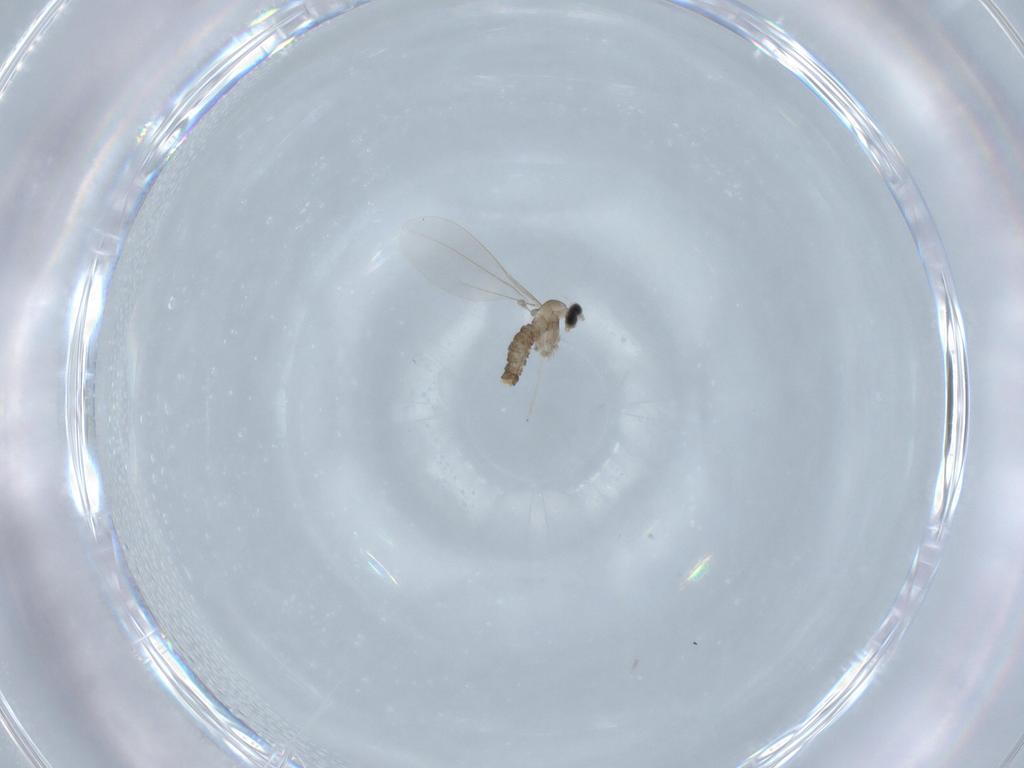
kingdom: Animalia
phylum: Arthropoda
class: Insecta
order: Diptera
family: Cecidomyiidae
